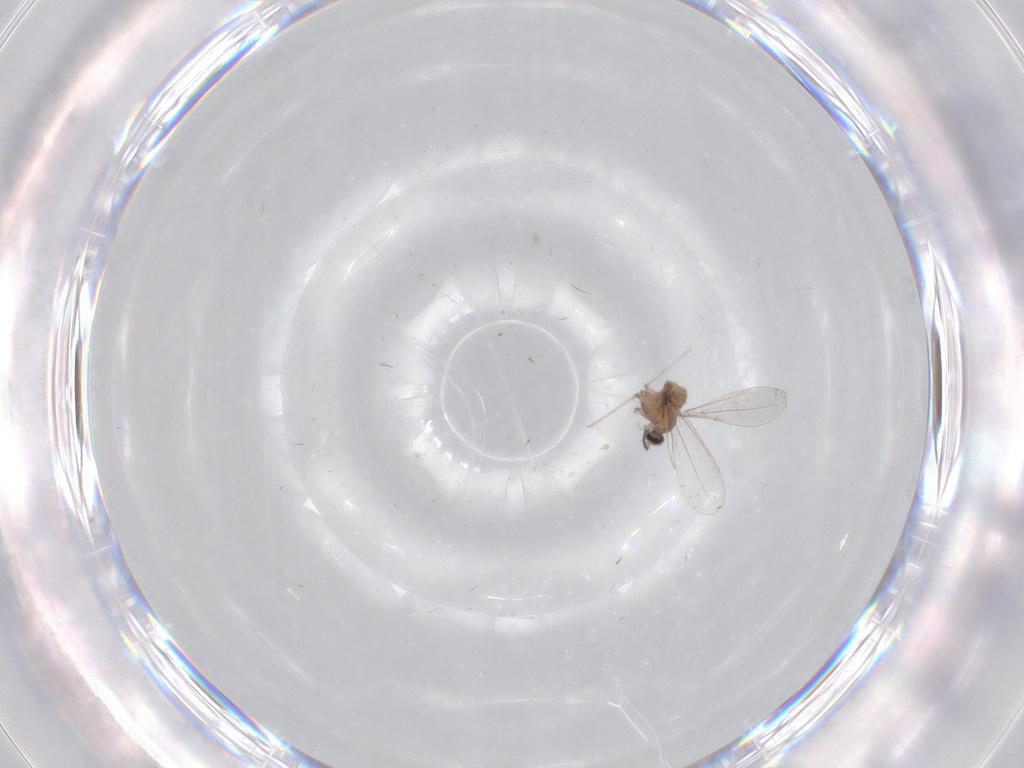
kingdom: Animalia
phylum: Arthropoda
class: Insecta
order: Diptera
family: Cecidomyiidae
